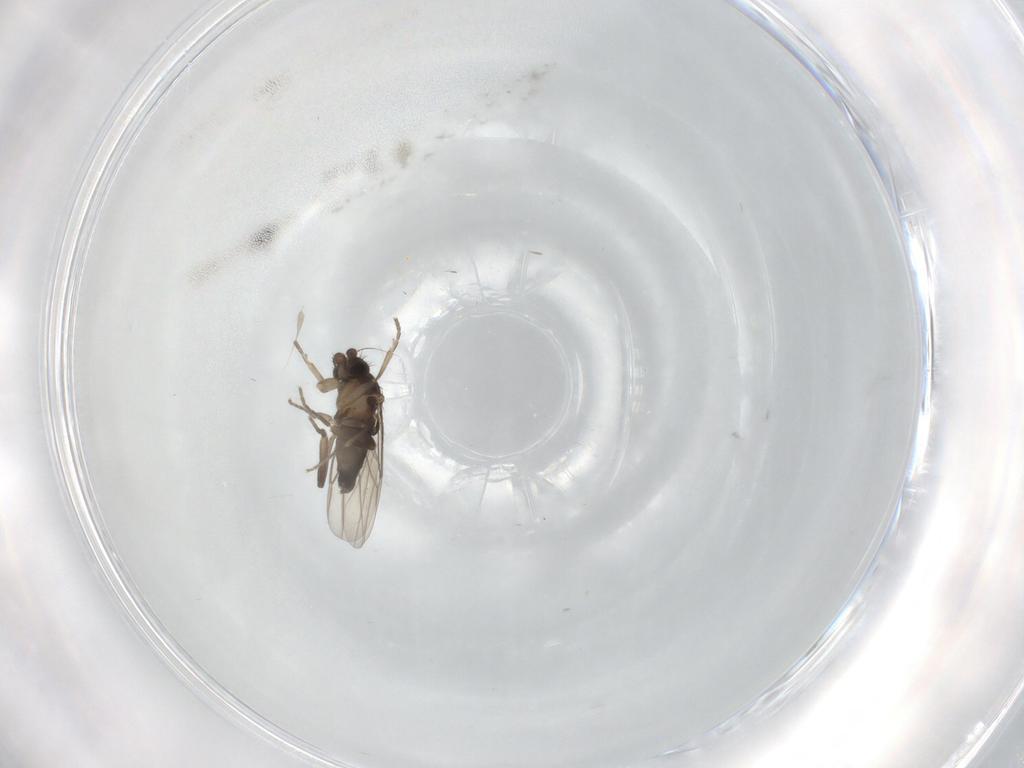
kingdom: Animalia
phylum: Arthropoda
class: Insecta
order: Diptera
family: Phoridae
